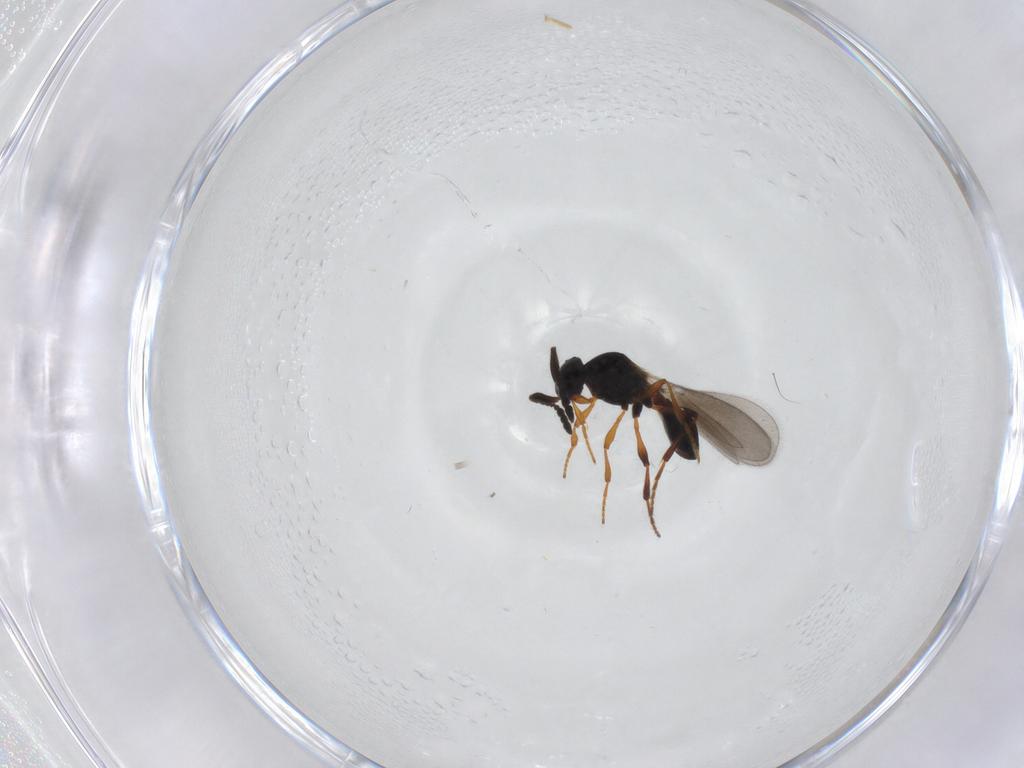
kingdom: Animalia
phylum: Arthropoda
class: Insecta
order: Hymenoptera
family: Platygastridae
